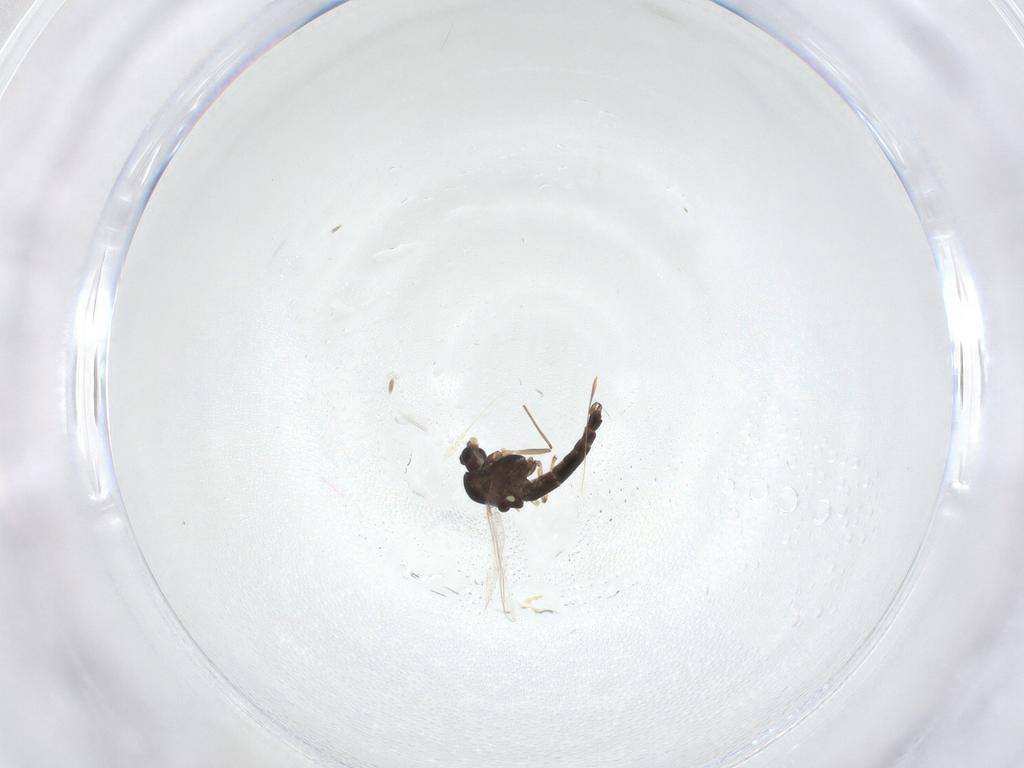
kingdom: Animalia
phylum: Arthropoda
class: Insecta
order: Diptera
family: Chironomidae
